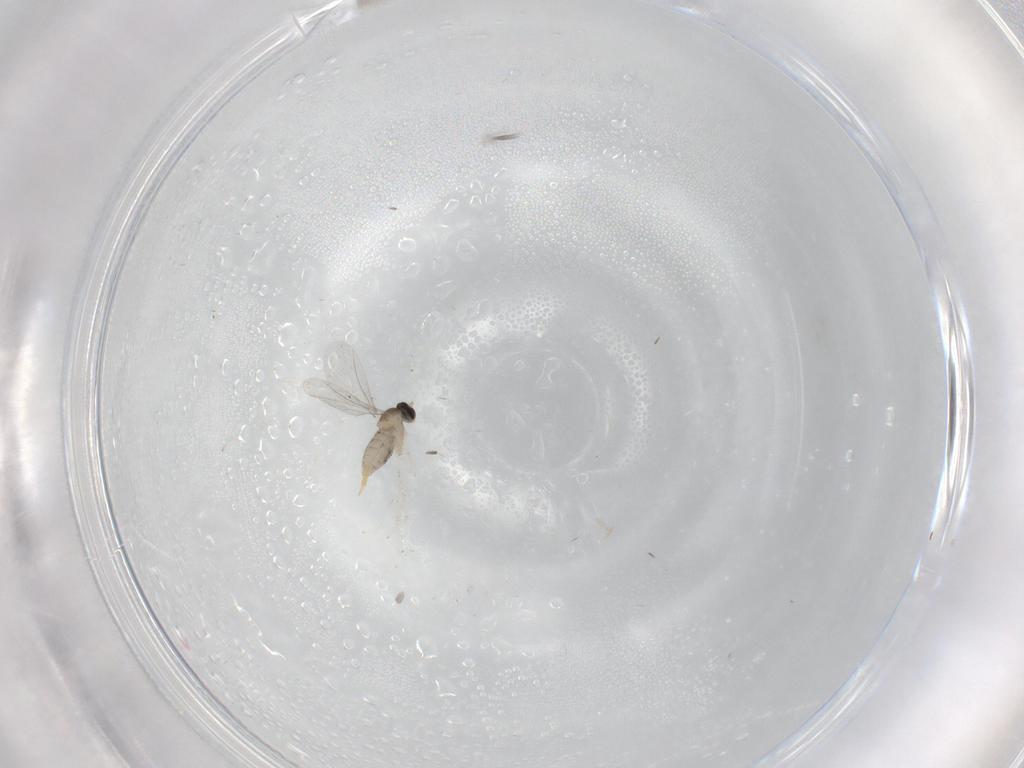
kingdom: Animalia
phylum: Arthropoda
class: Insecta
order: Diptera
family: Cecidomyiidae
